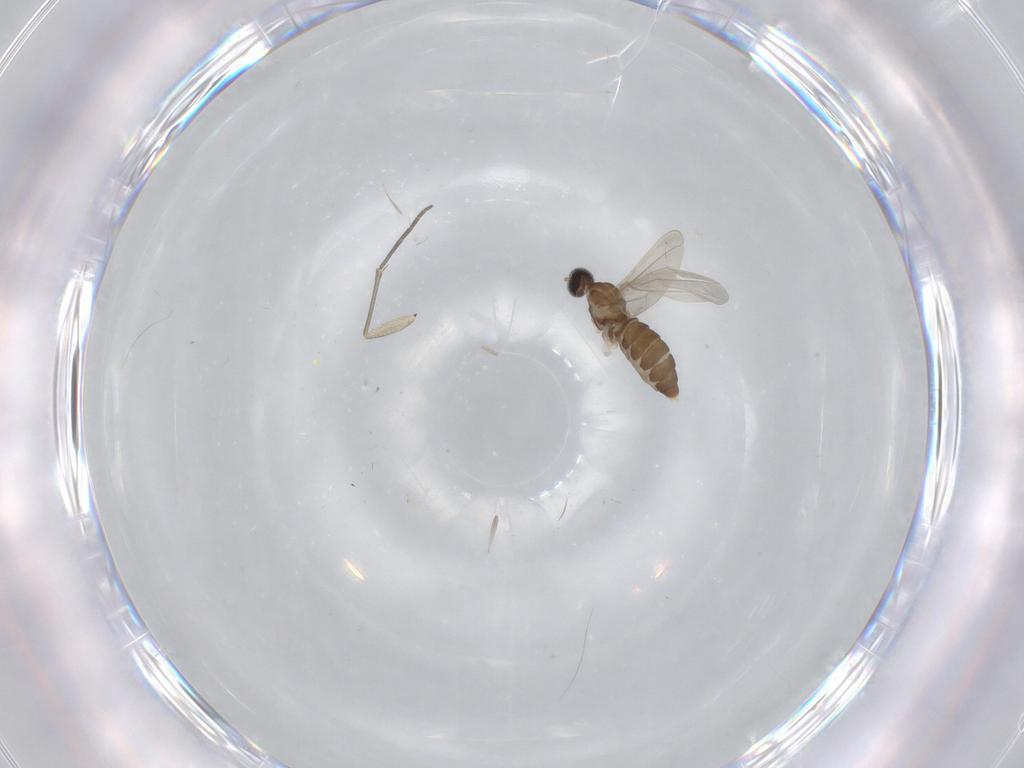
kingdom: Animalia
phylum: Arthropoda
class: Insecta
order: Diptera
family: Cecidomyiidae
